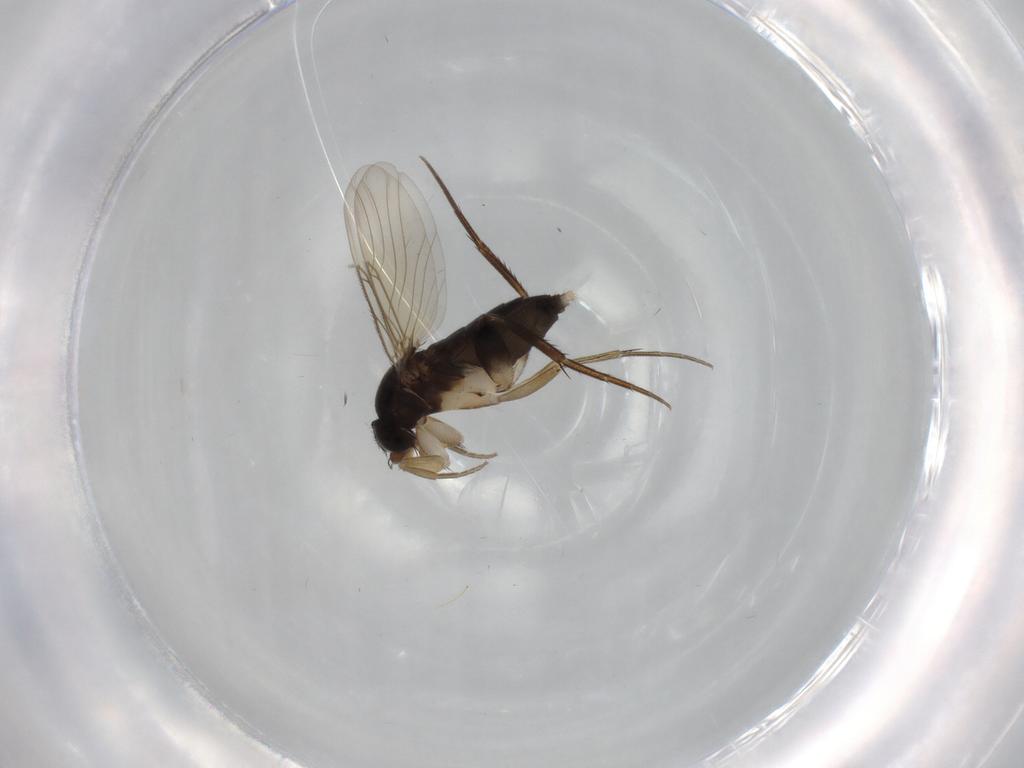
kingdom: Animalia
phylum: Arthropoda
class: Insecta
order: Diptera
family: Phoridae
